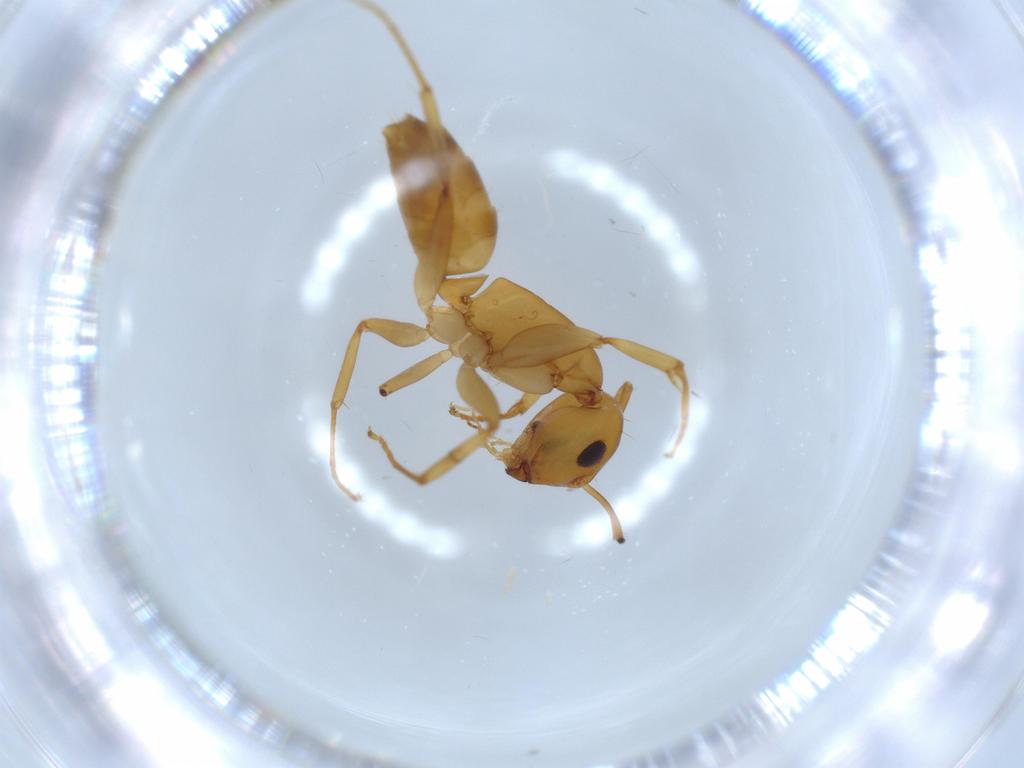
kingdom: Animalia
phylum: Arthropoda
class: Insecta
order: Hymenoptera
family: Formicidae
